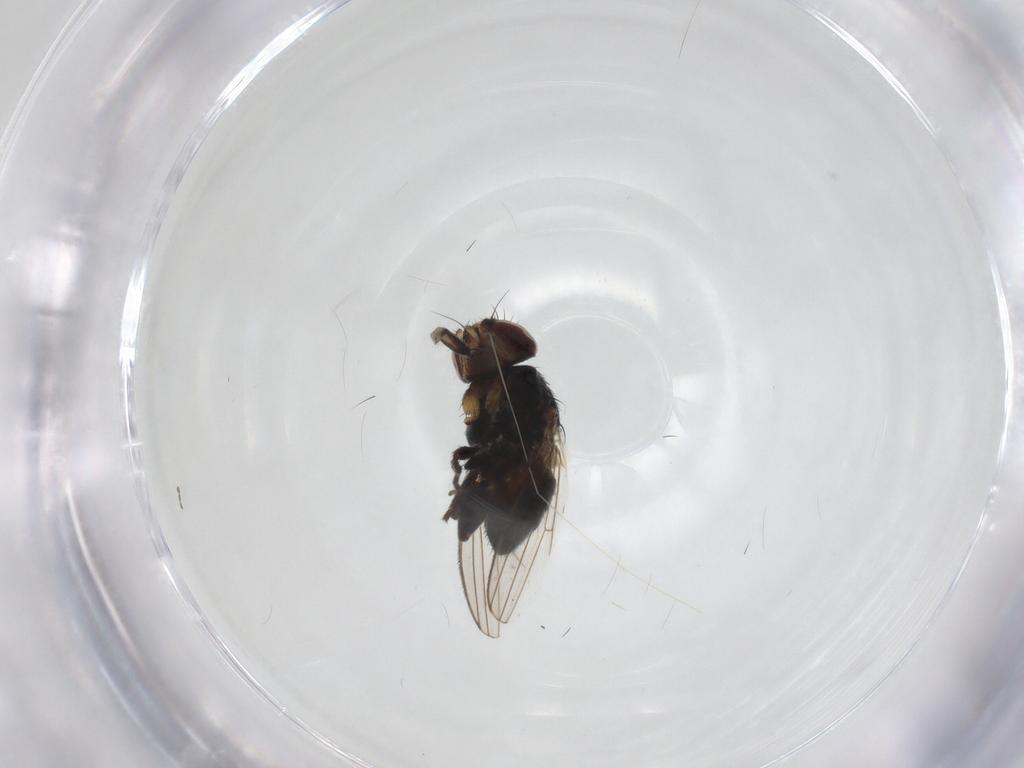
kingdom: Animalia
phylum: Arthropoda
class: Insecta
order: Diptera
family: Milichiidae
